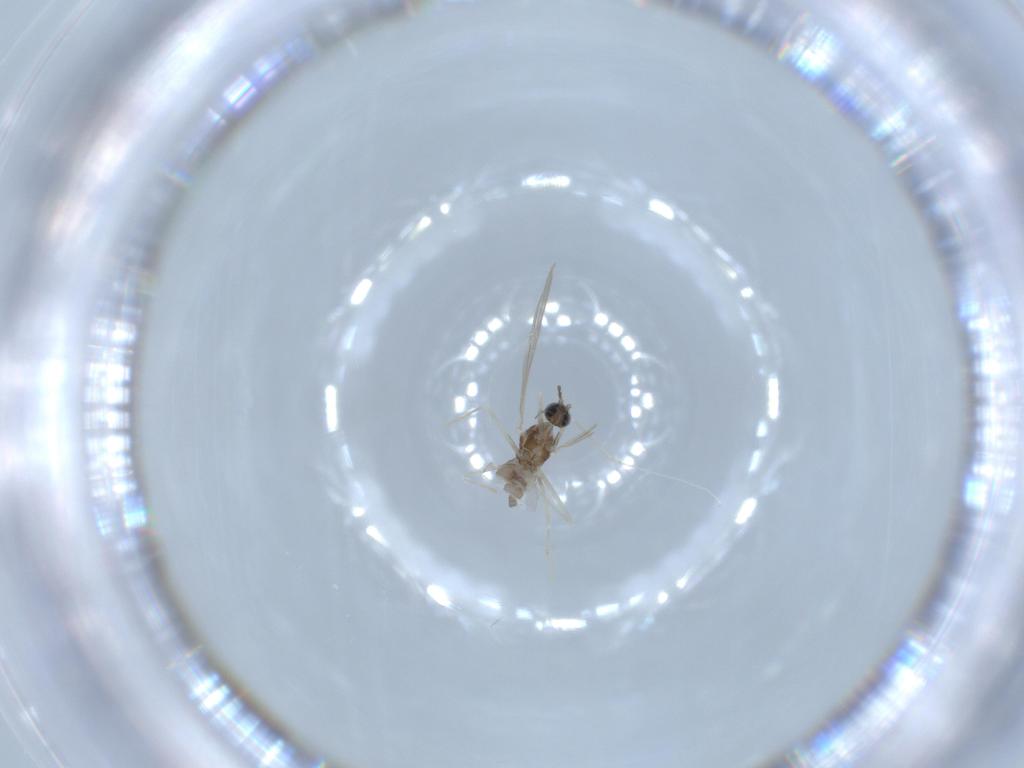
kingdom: Animalia
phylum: Arthropoda
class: Insecta
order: Diptera
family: Cecidomyiidae
